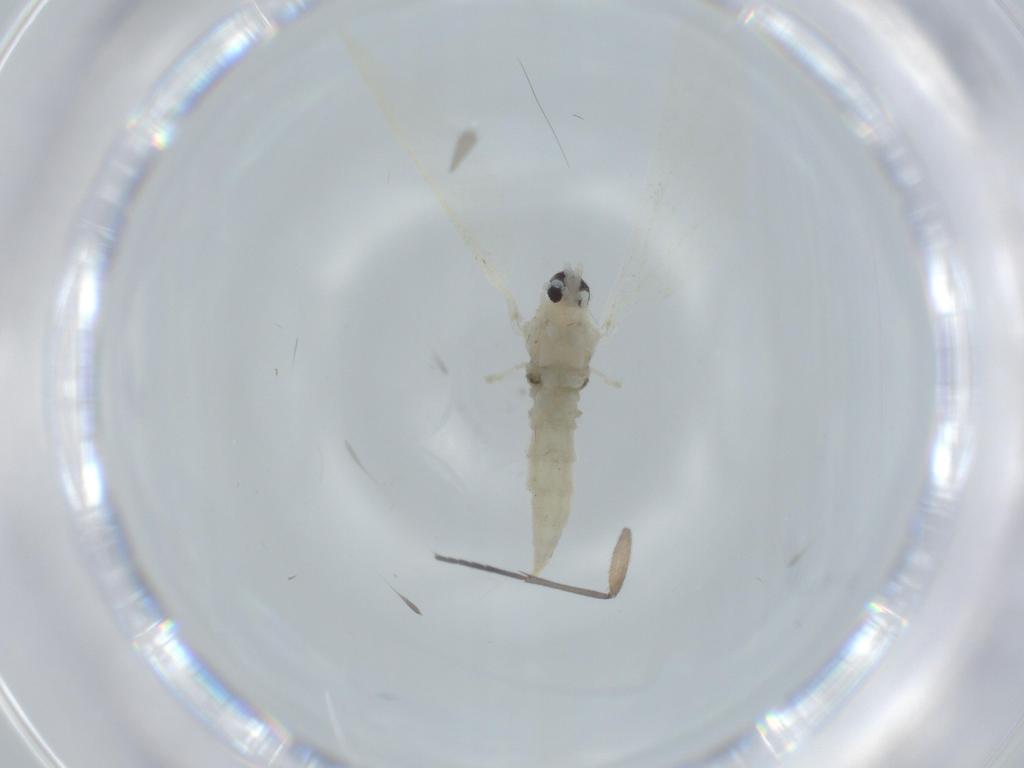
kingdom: Animalia
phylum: Arthropoda
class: Insecta
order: Diptera
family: Cecidomyiidae
